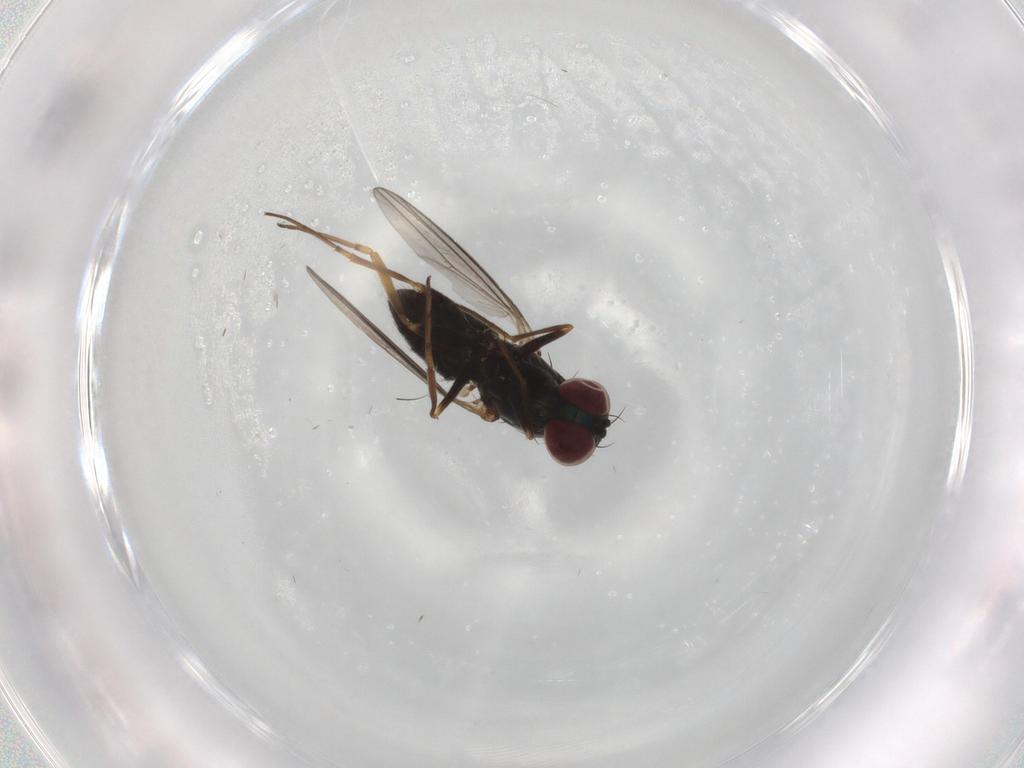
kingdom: Animalia
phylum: Arthropoda
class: Insecta
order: Diptera
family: Dolichopodidae
